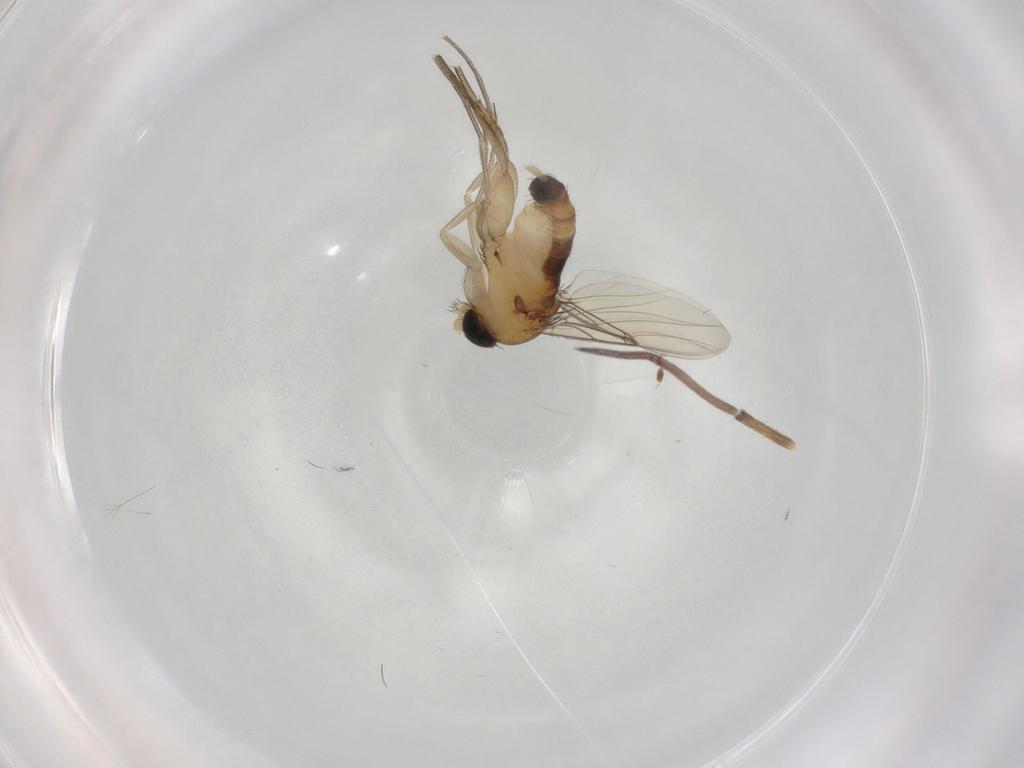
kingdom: Animalia
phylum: Arthropoda
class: Insecta
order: Diptera
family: Phoridae
